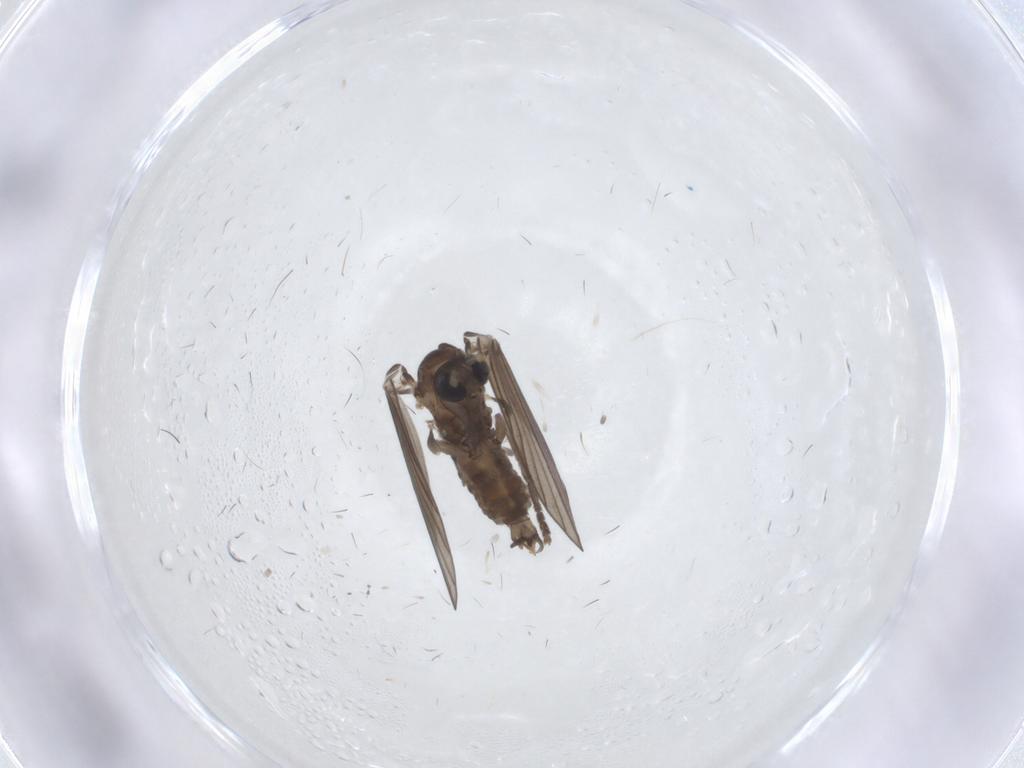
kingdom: Animalia
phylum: Arthropoda
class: Insecta
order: Diptera
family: Psychodidae
